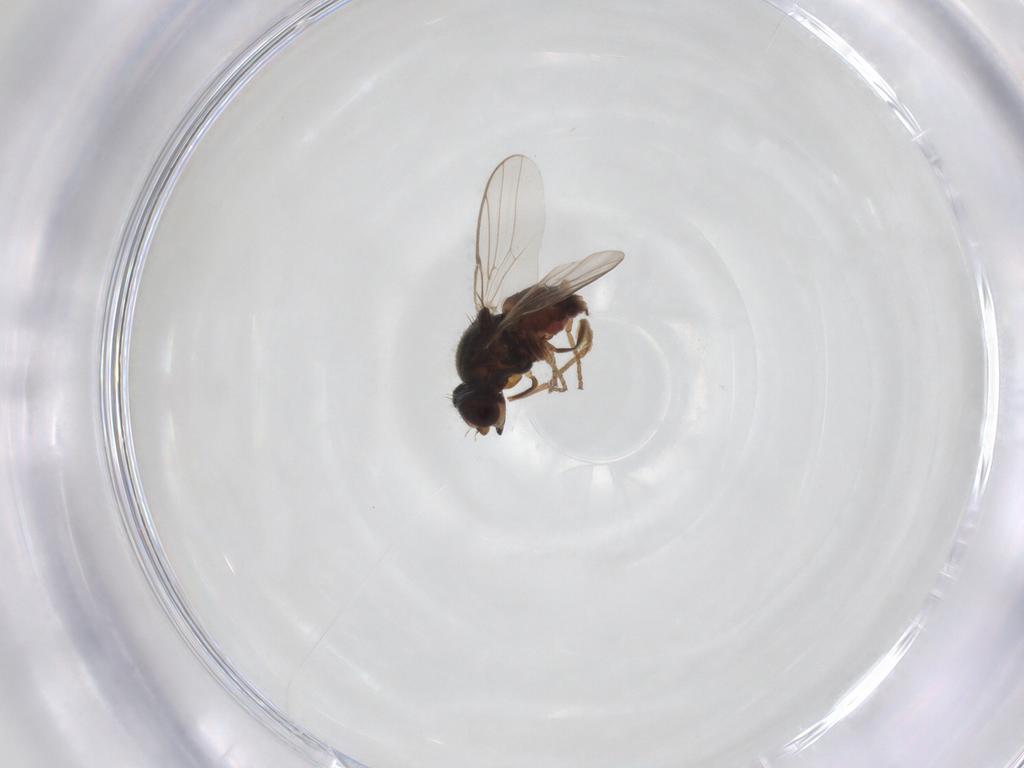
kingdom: Animalia
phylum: Arthropoda
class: Insecta
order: Diptera
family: Chloropidae
